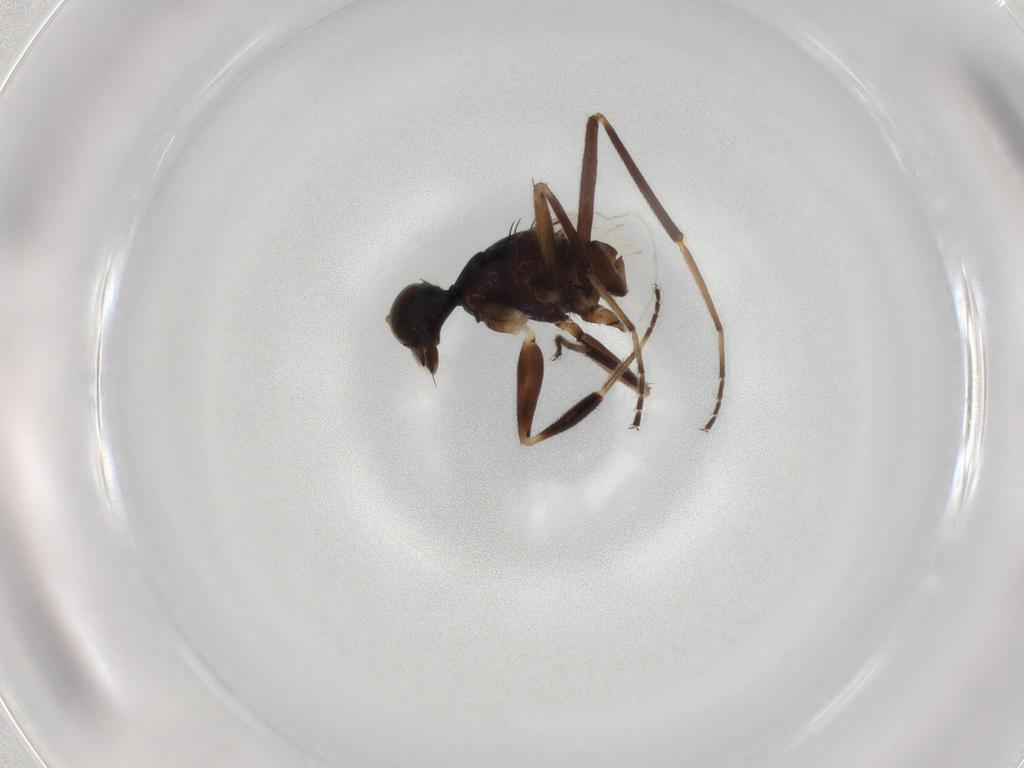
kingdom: Animalia
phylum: Arthropoda
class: Insecta
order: Diptera
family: Hybotidae
